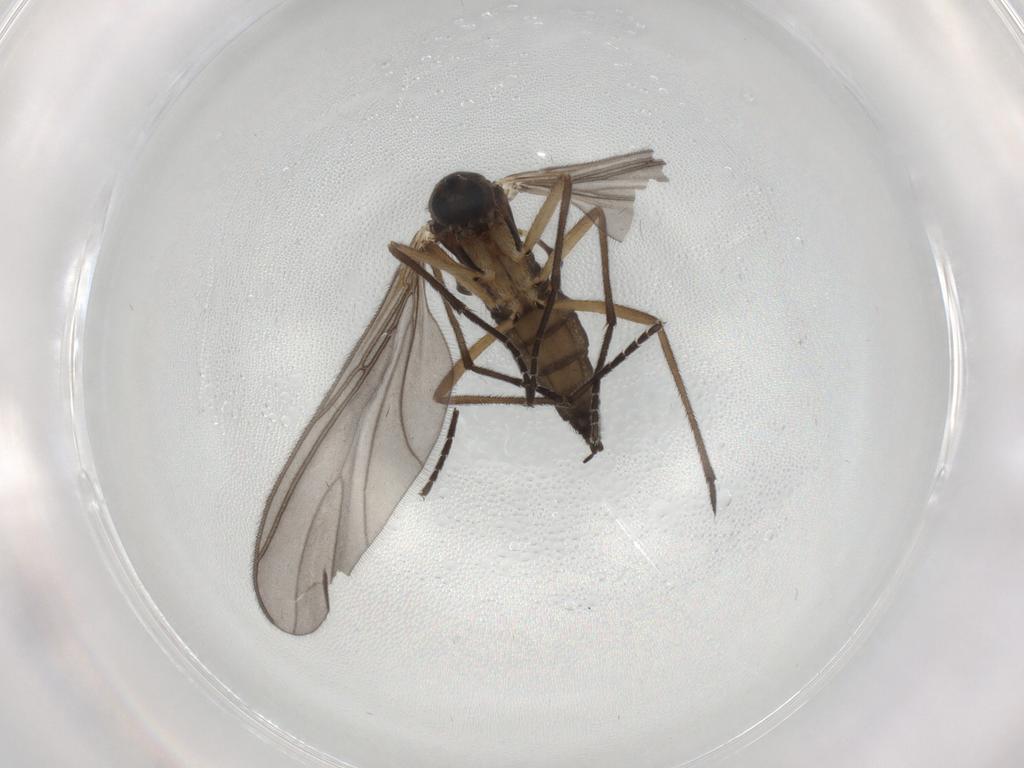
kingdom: Animalia
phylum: Arthropoda
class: Insecta
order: Diptera
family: Sciaridae
